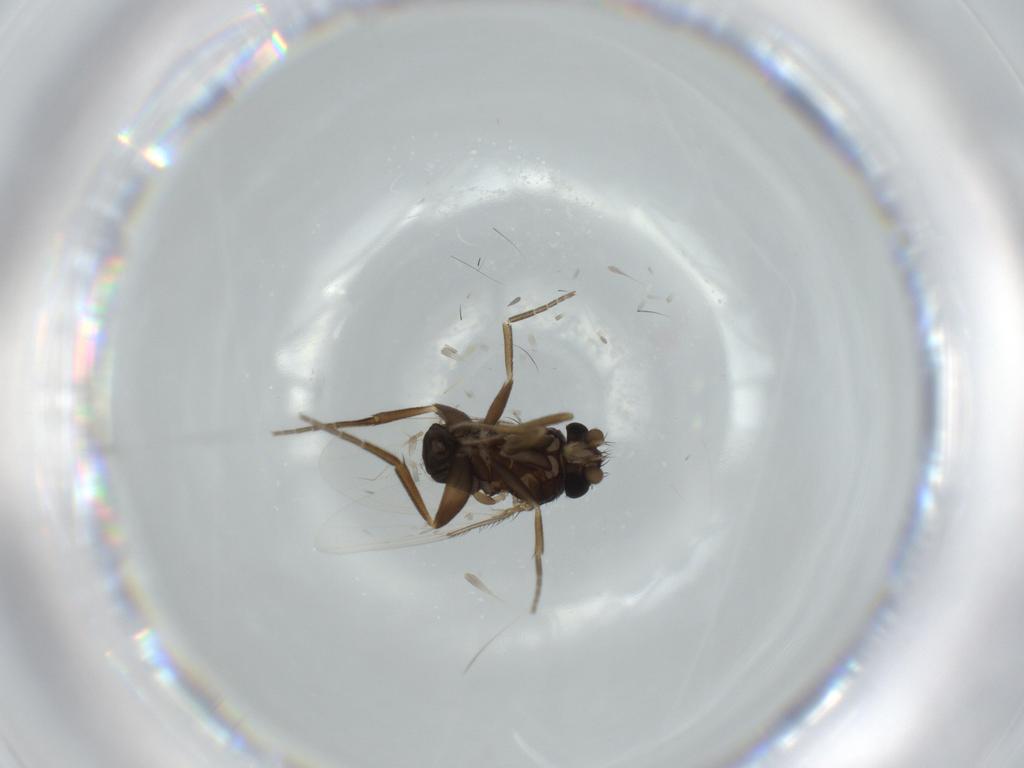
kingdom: Animalia
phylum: Arthropoda
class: Insecta
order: Diptera
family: Phoridae
